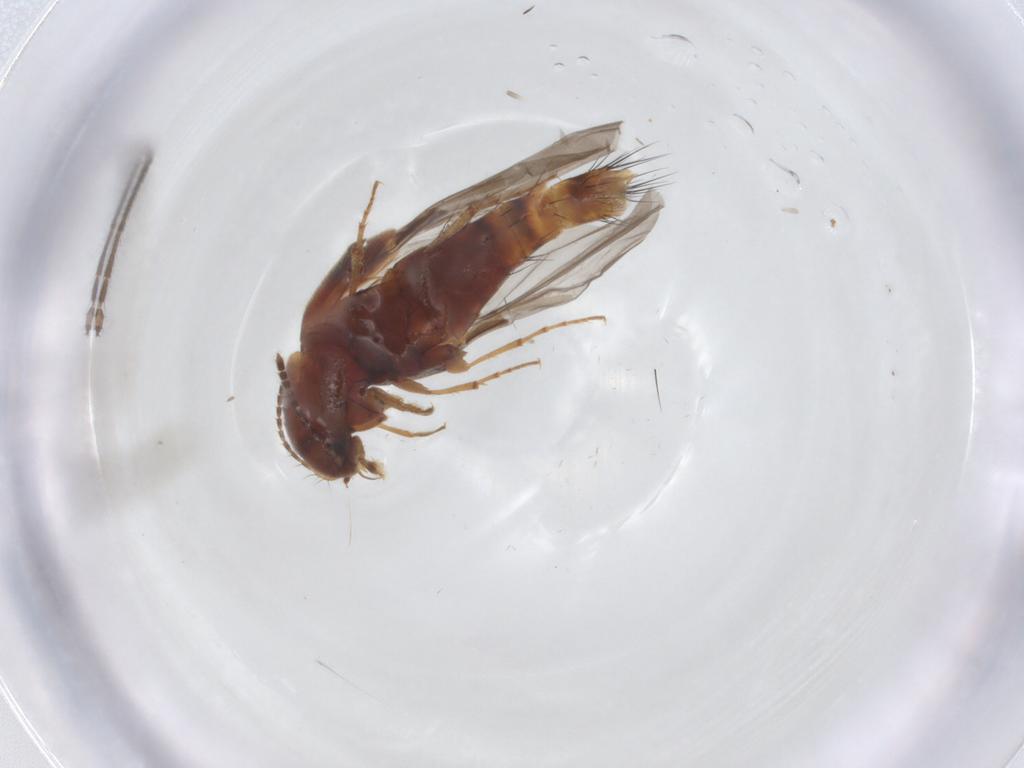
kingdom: Animalia
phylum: Arthropoda
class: Insecta
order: Coleoptera
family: Staphylinidae
